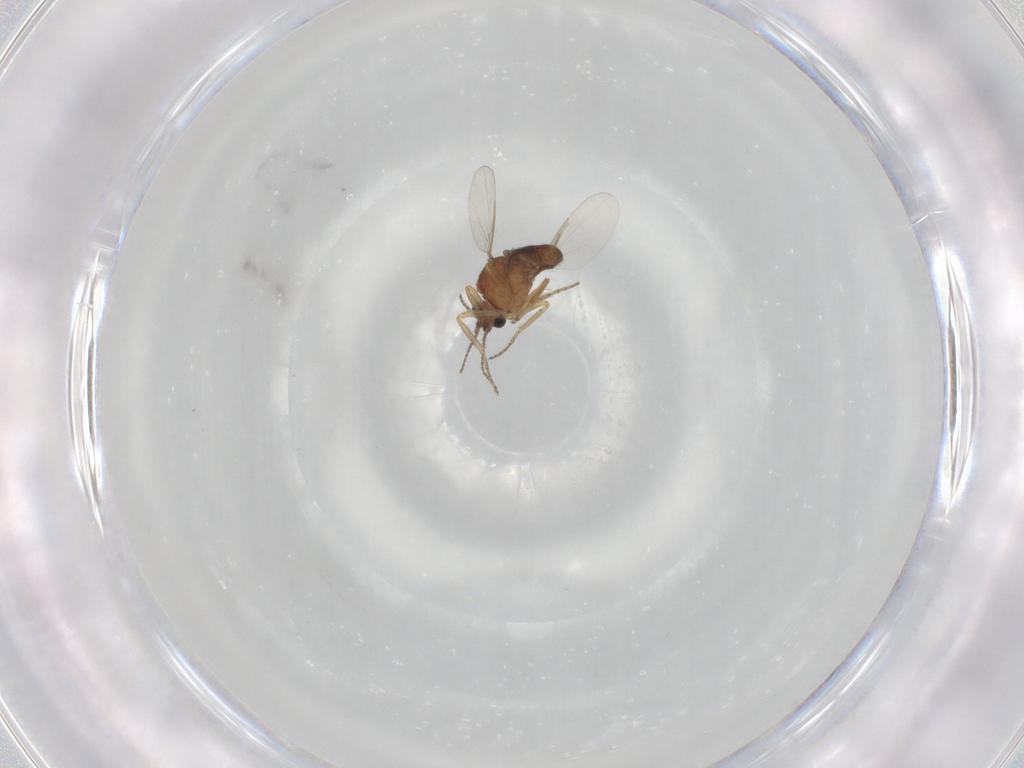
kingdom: Animalia
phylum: Arthropoda
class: Insecta
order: Diptera
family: Ceratopogonidae
